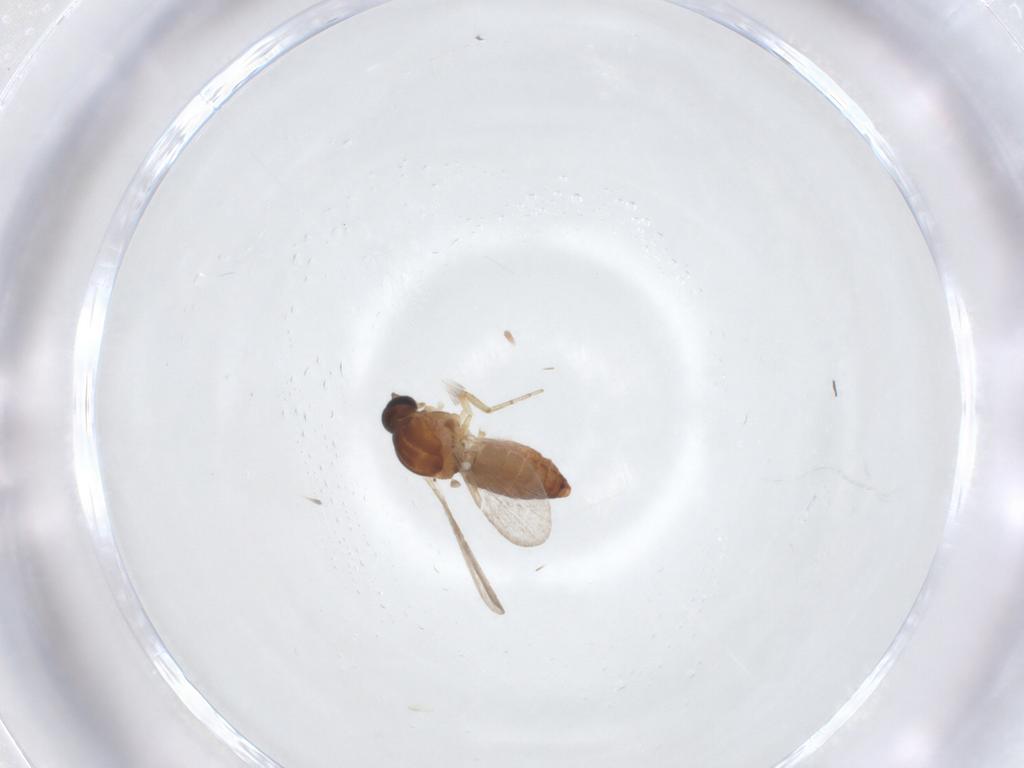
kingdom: Animalia
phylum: Arthropoda
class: Insecta
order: Diptera
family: Ceratopogonidae
